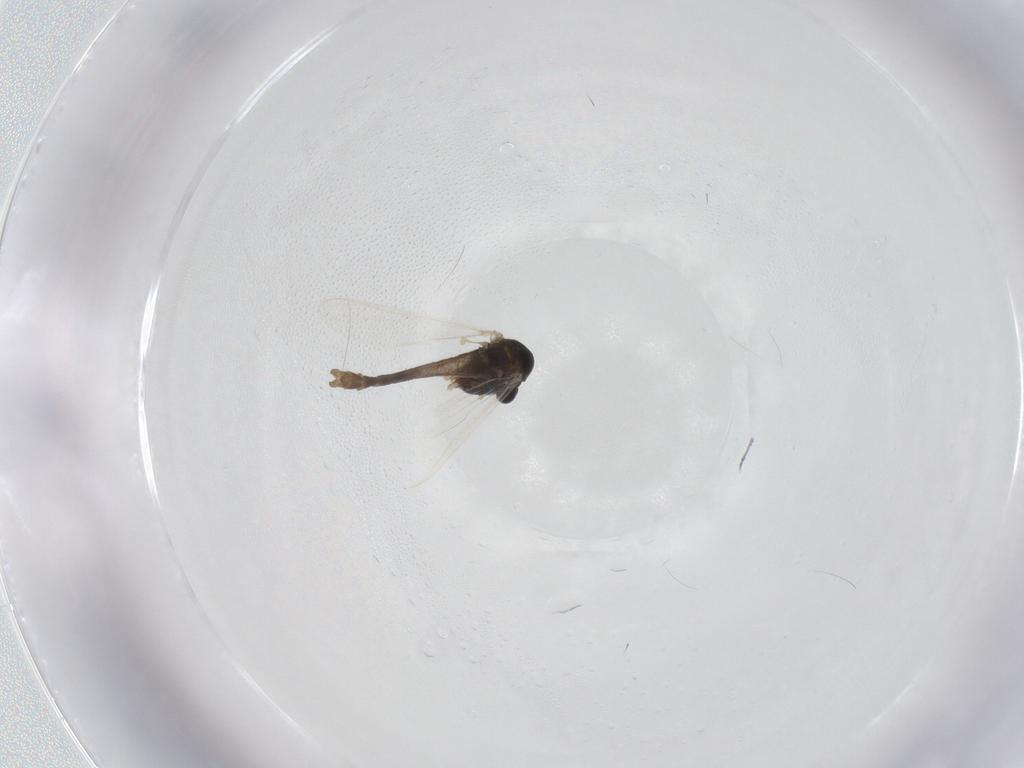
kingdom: Animalia
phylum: Arthropoda
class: Insecta
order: Diptera
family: Chironomidae
